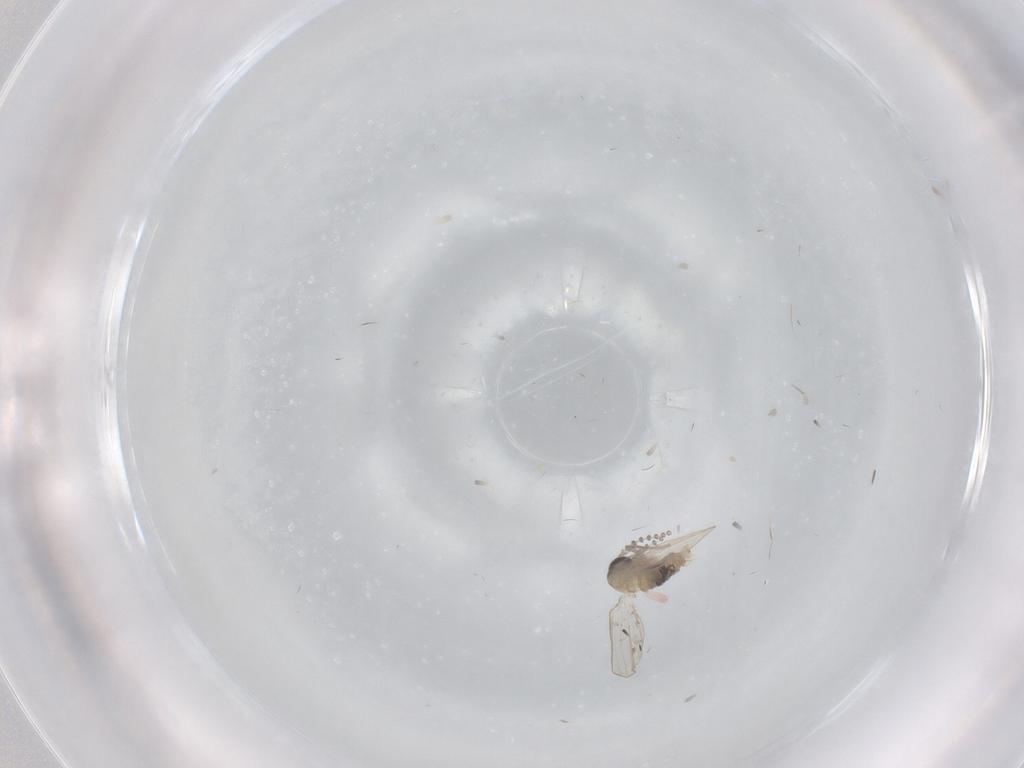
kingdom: Animalia
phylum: Arthropoda
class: Insecta
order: Diptera
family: Psychodidae
